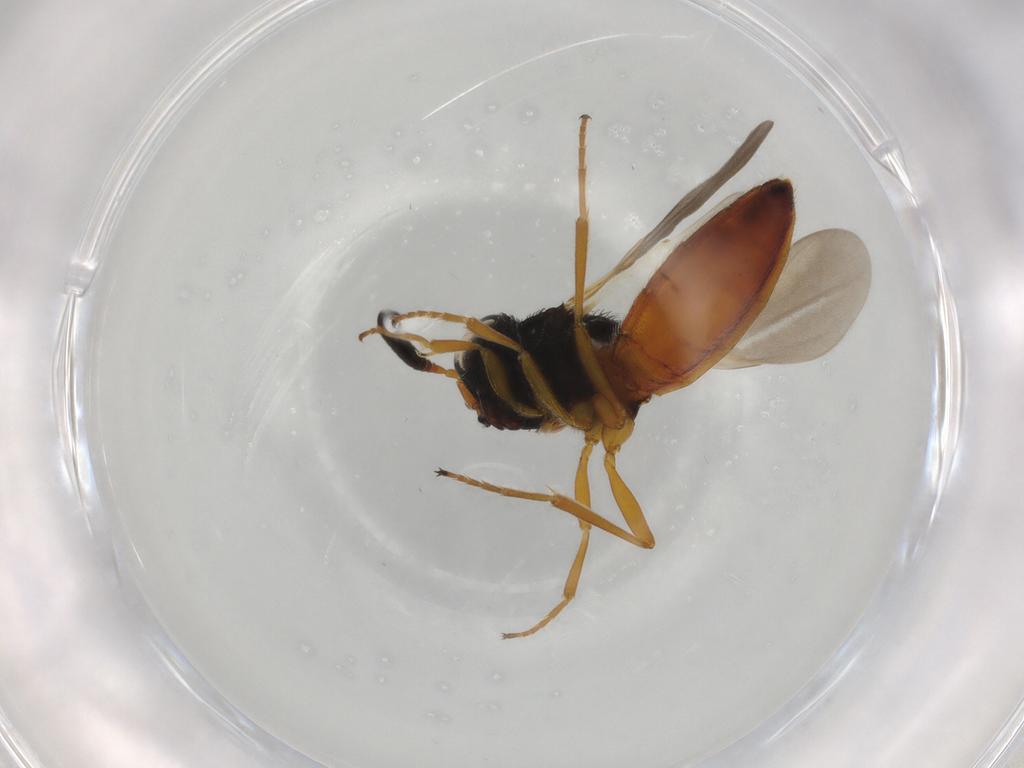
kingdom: Animalia
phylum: Arthropoda
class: Insecta
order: Hymenoptera
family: Scelionidae
